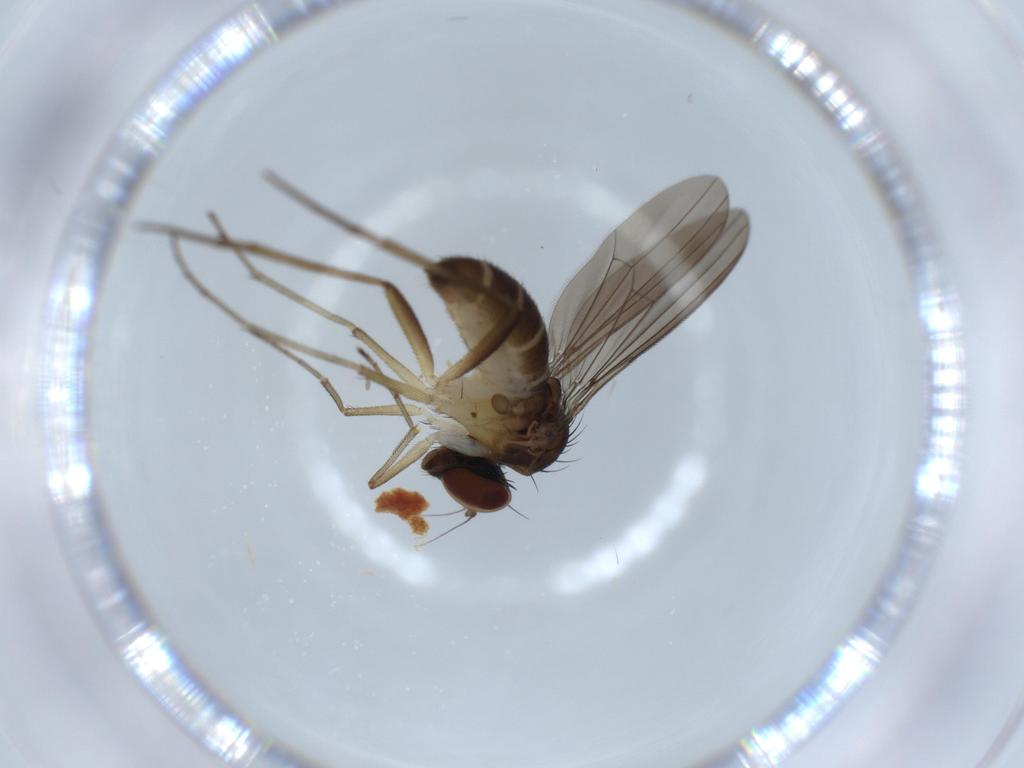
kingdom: Animalia
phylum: Arthropoda
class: Insecta
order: Diptera
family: Dolichopodidae
